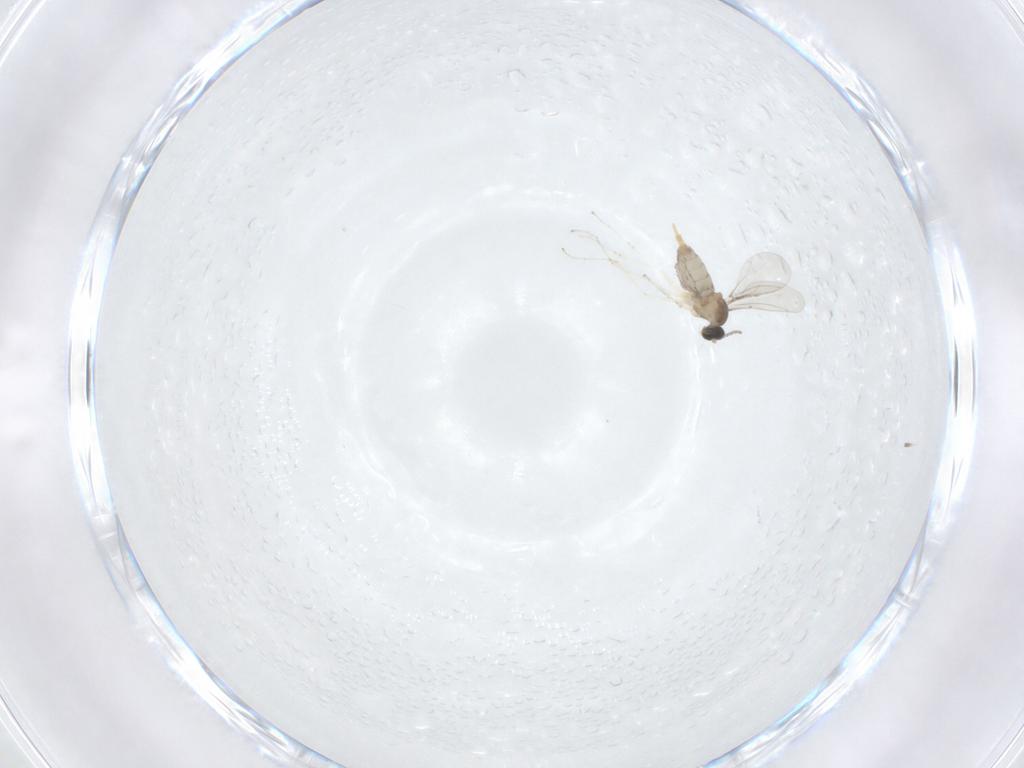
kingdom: Animalia
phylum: Arthropoda
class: Insecta
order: Diptera
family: Cecidomyiidae
